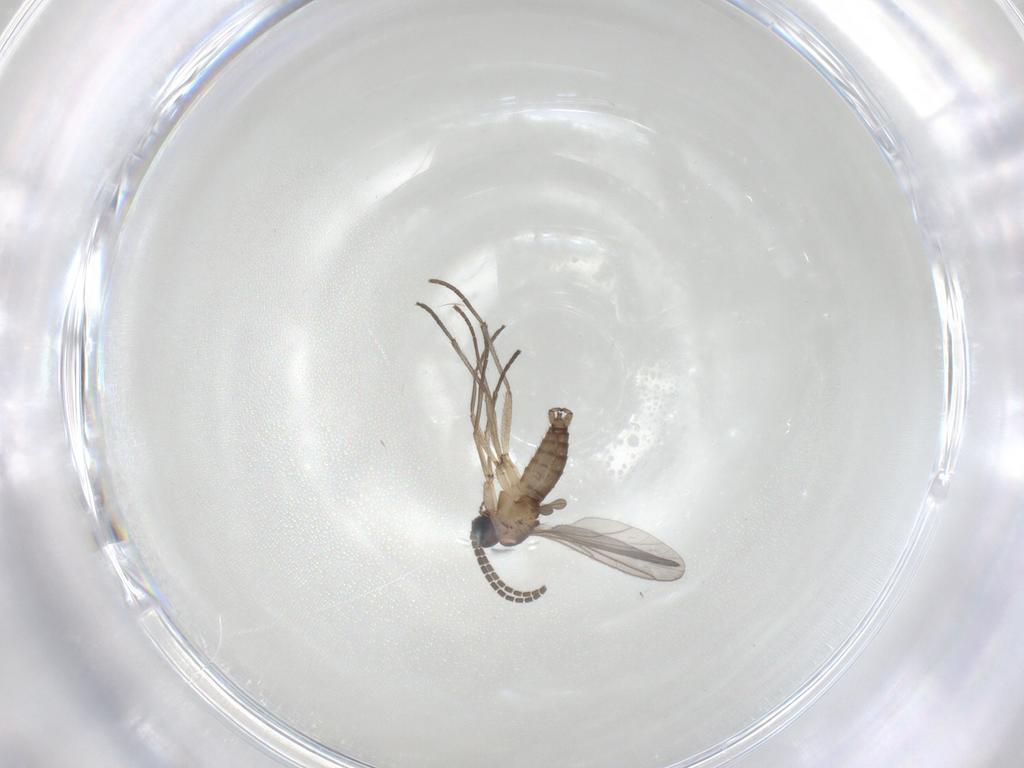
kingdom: Animalia
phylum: Arthropoda
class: Insecta
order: Diptera
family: Sciaridae
